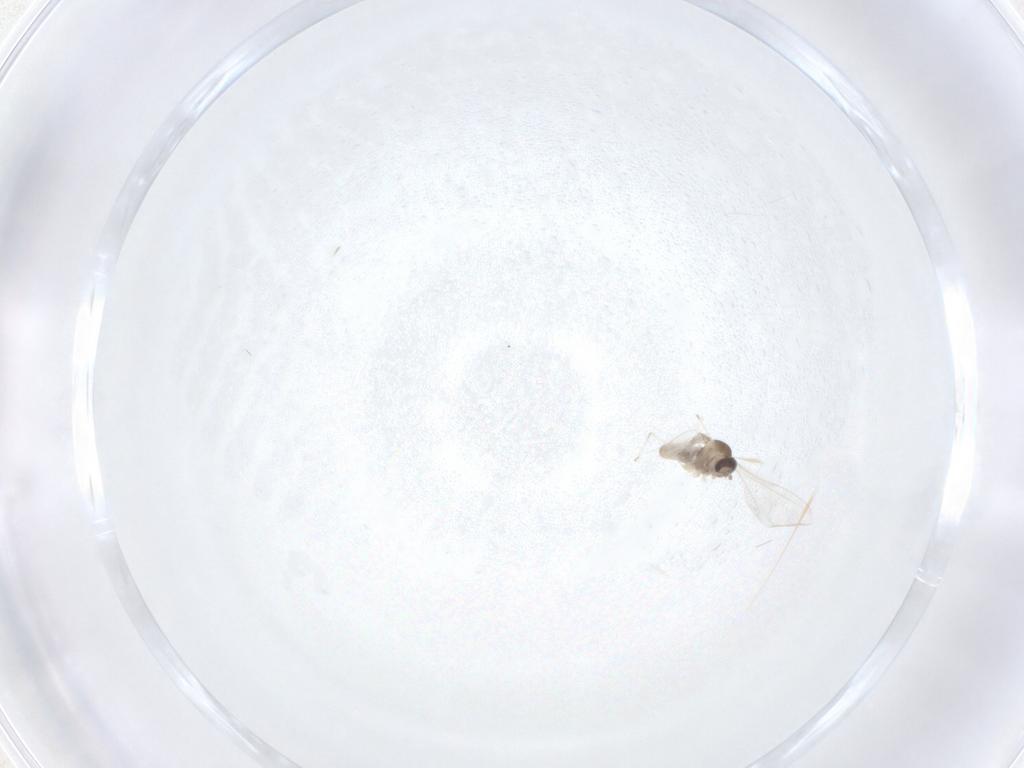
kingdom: Animalia
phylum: Arthropoda
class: Insecta
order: Diptera
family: Cecidomyiidae
